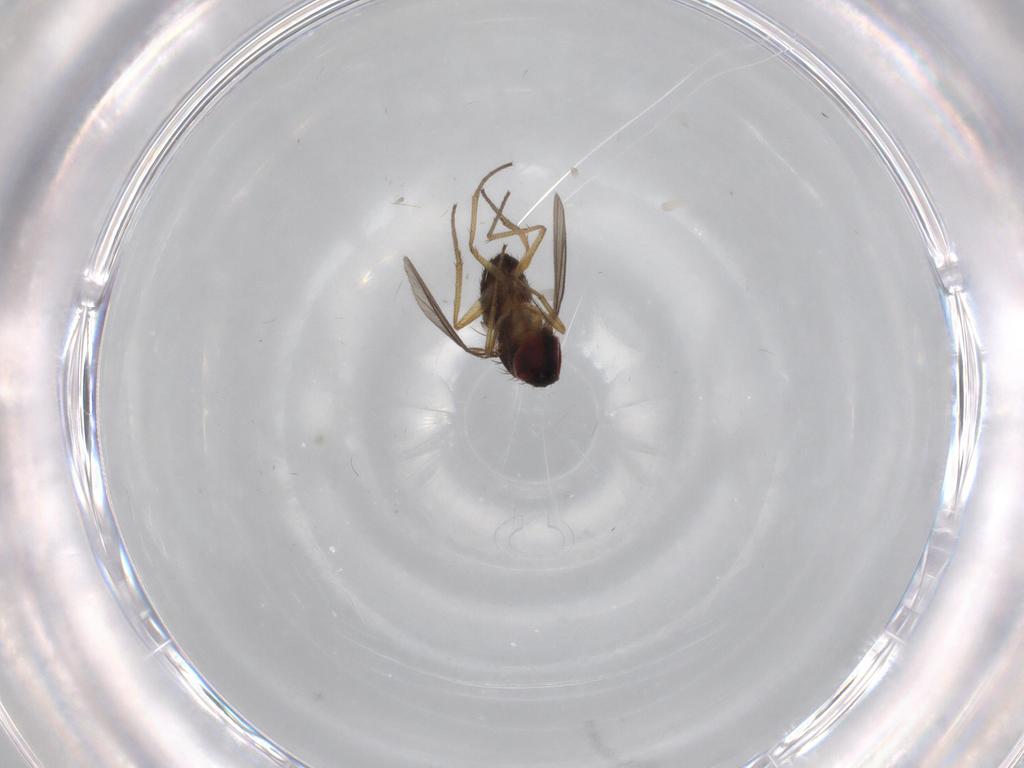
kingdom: Animalia
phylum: Arthropoda
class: Insecta
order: Diptera
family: Dolichopodidae
